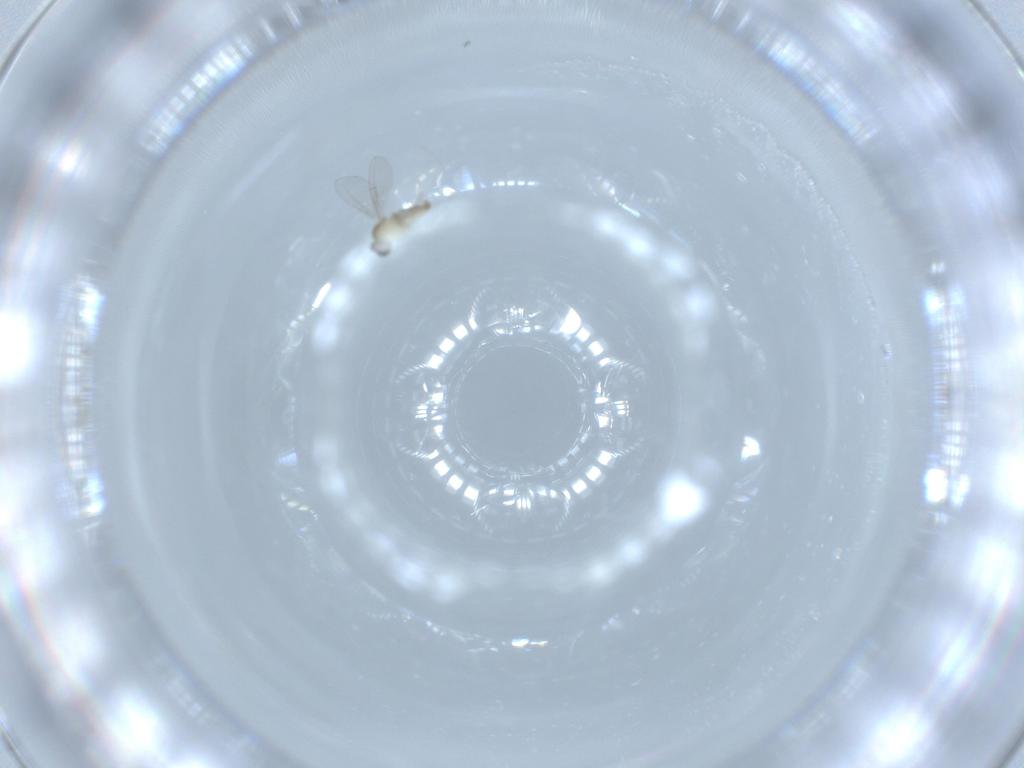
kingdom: Animalia
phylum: Arthropoda
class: Insecta
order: Diptera
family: Cecidomyiidae
